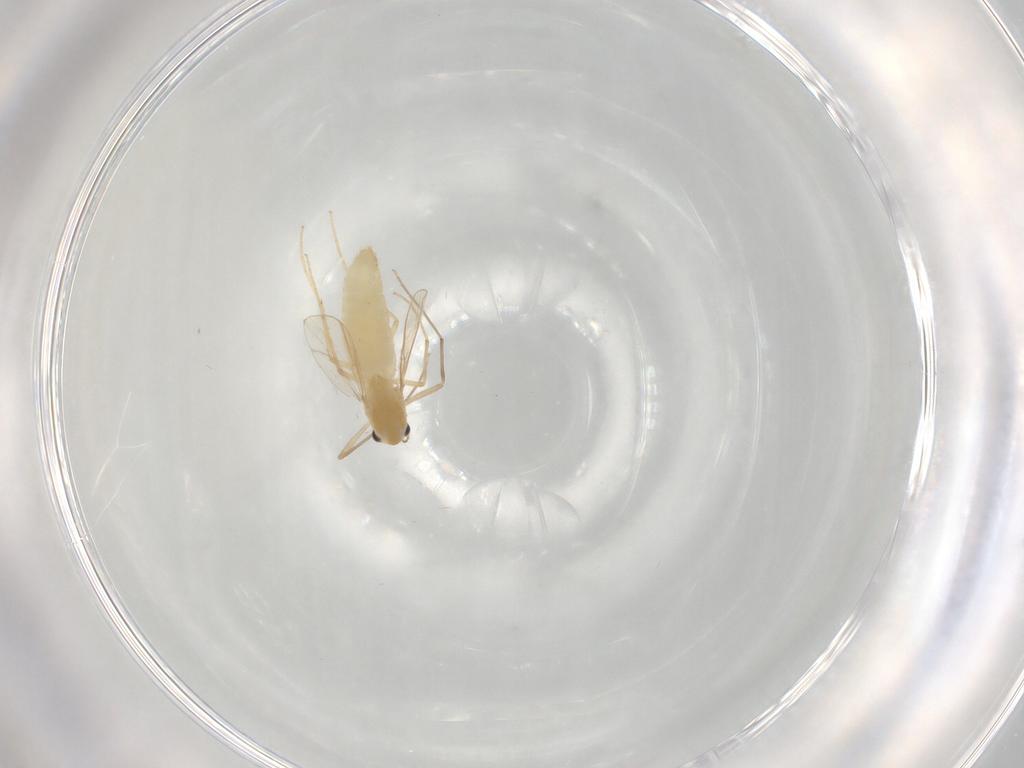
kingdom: Animalia
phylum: Arthropoda
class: Insecta
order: Diptera
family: Chironomidae
